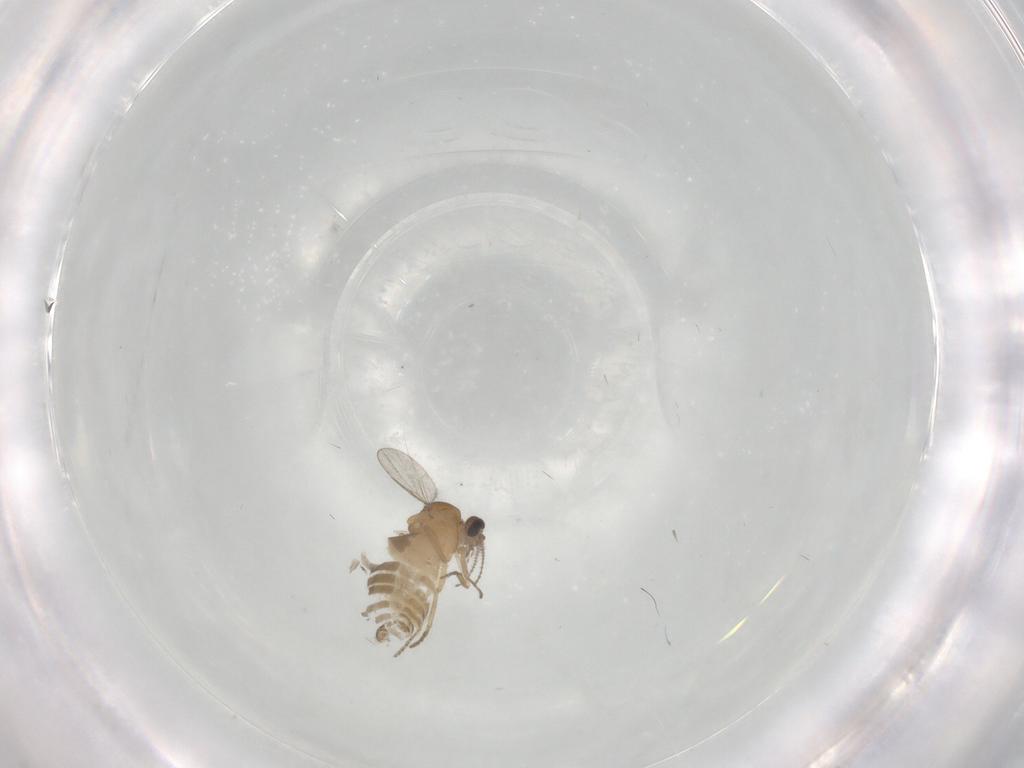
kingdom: Animalia
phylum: Arthropoda
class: Insecta
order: Diptera
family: Ceratopogonidae
